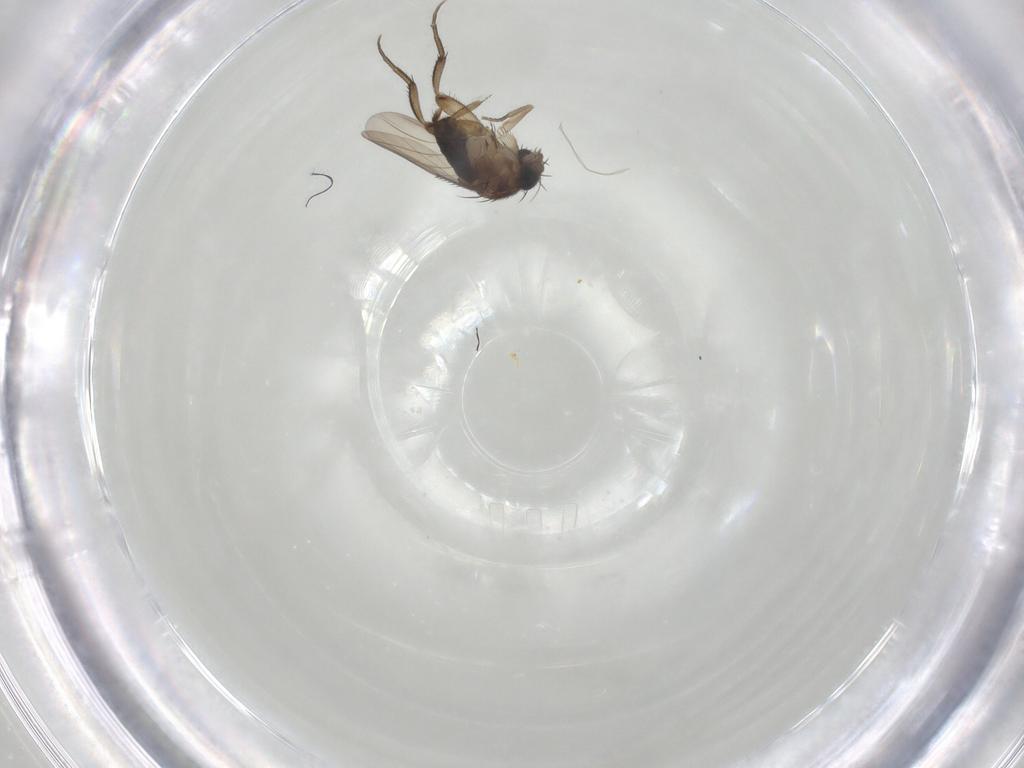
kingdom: Animalia
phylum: Arthropoda
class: Insecta
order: Diptera
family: Phoridae
